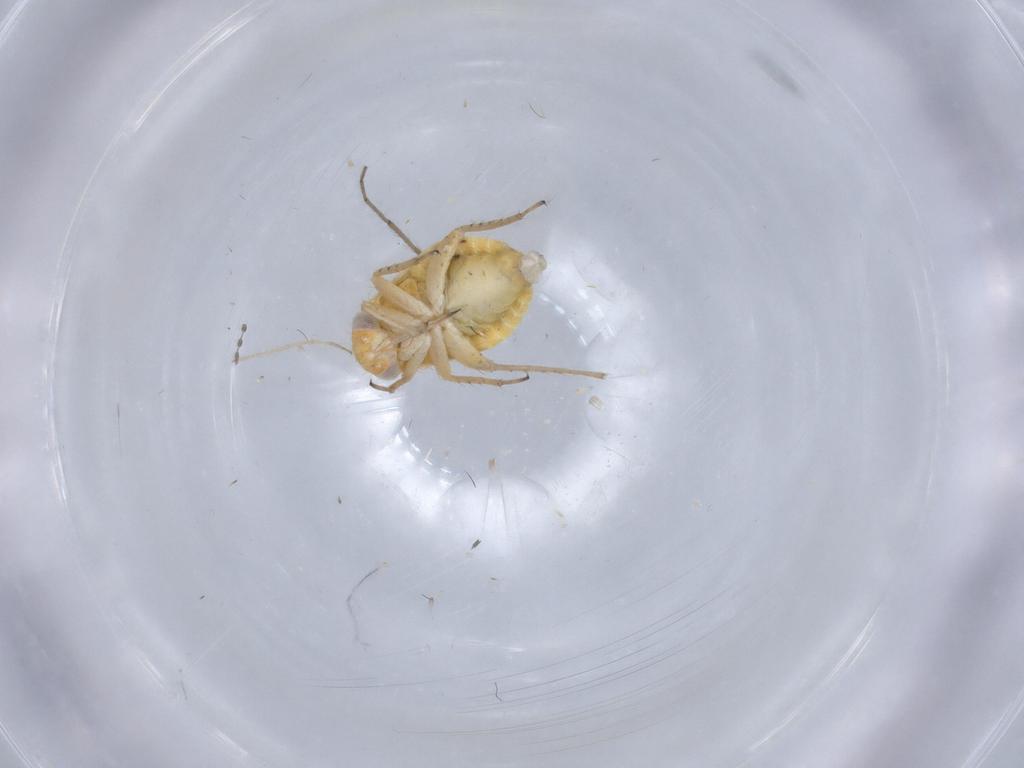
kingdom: Animalia
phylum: Arthropoda
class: Insecta
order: Hemiptera
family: Miridae
